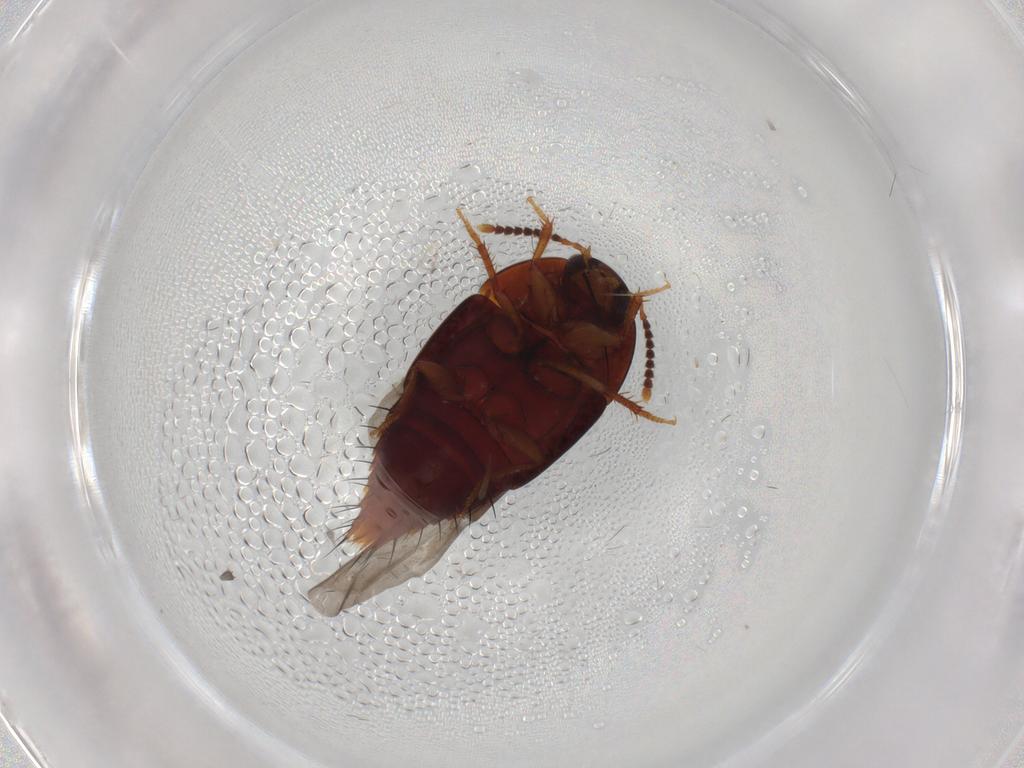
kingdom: Animalia
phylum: Arthropoda
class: Insecta
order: Coleoptera
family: Staphylinidae
